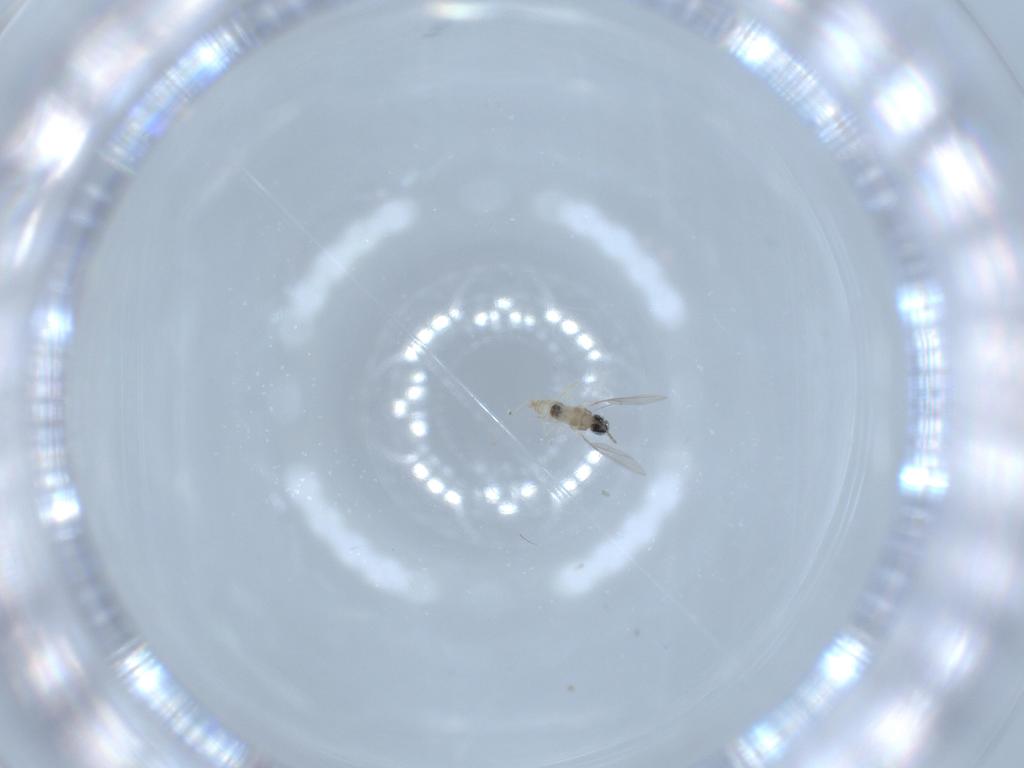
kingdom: Animalia
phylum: Arthropoda
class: Insecta
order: Diptera
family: Cecidomyiidae
